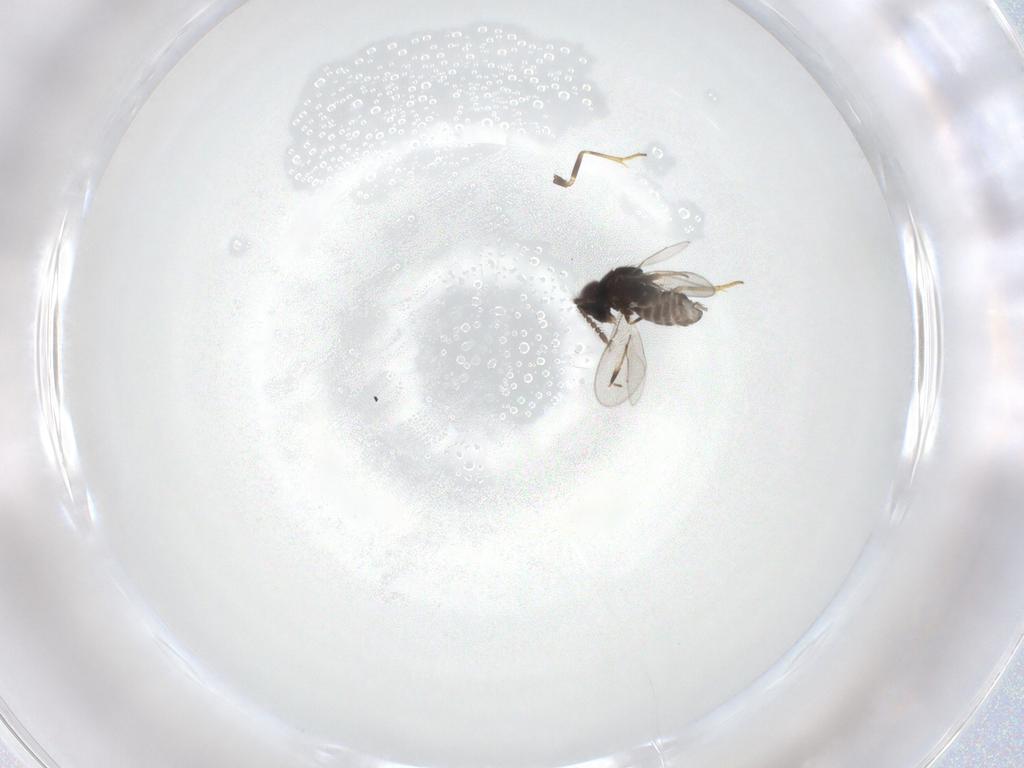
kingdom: Animalia
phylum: Arthropoda
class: Insecta
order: Hymenoptera
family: Encyrtidae
